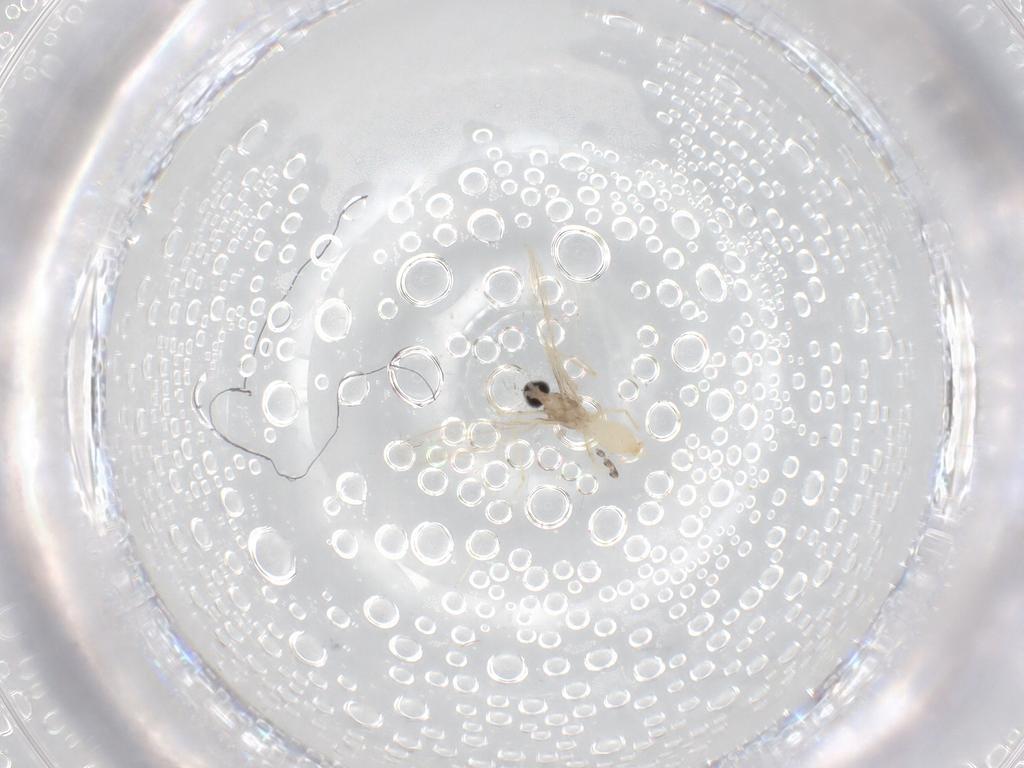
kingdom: Animalia
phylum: Arthropoda
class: Insecta
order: Diptera
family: Psychodidae
